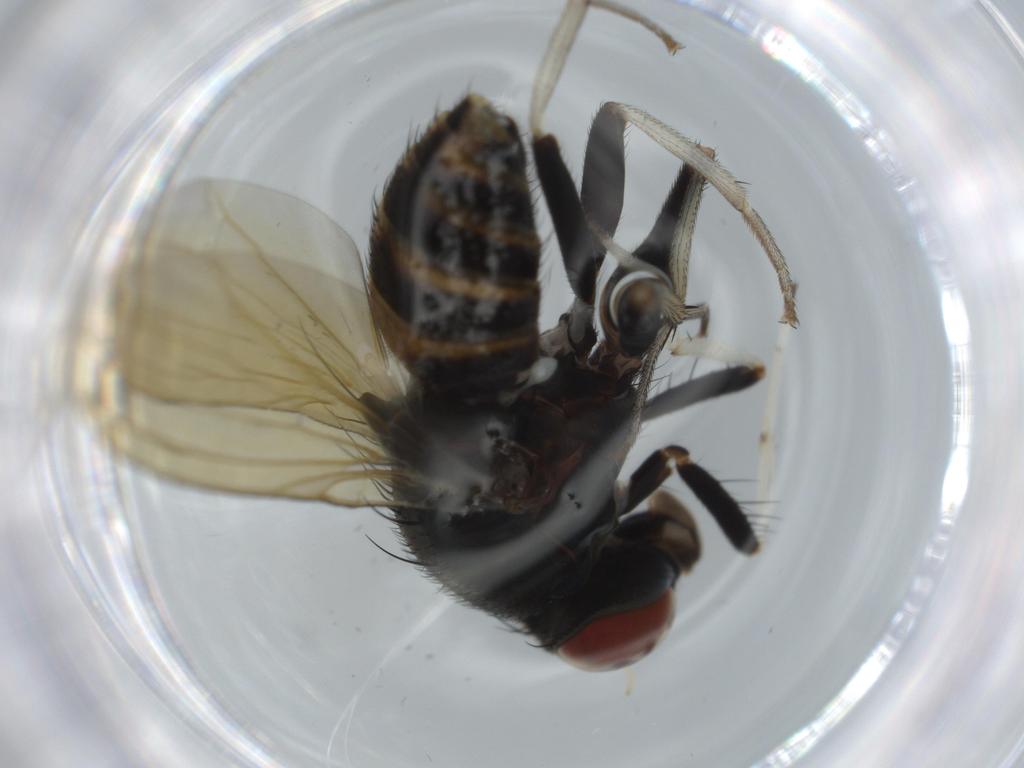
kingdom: Animalia
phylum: Arthropoda
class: Insecta
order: Diptera
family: Chironomidae
